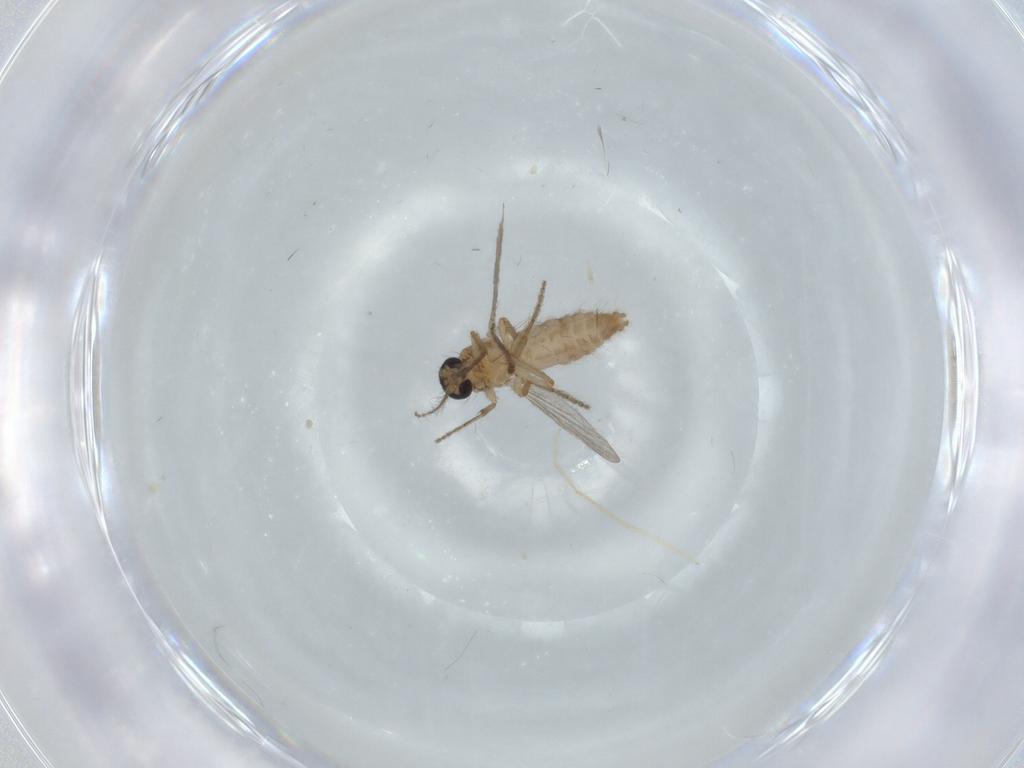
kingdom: Animalia
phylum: Arthropoda
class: Insecta
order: Diptera
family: Ceratopogonidae
